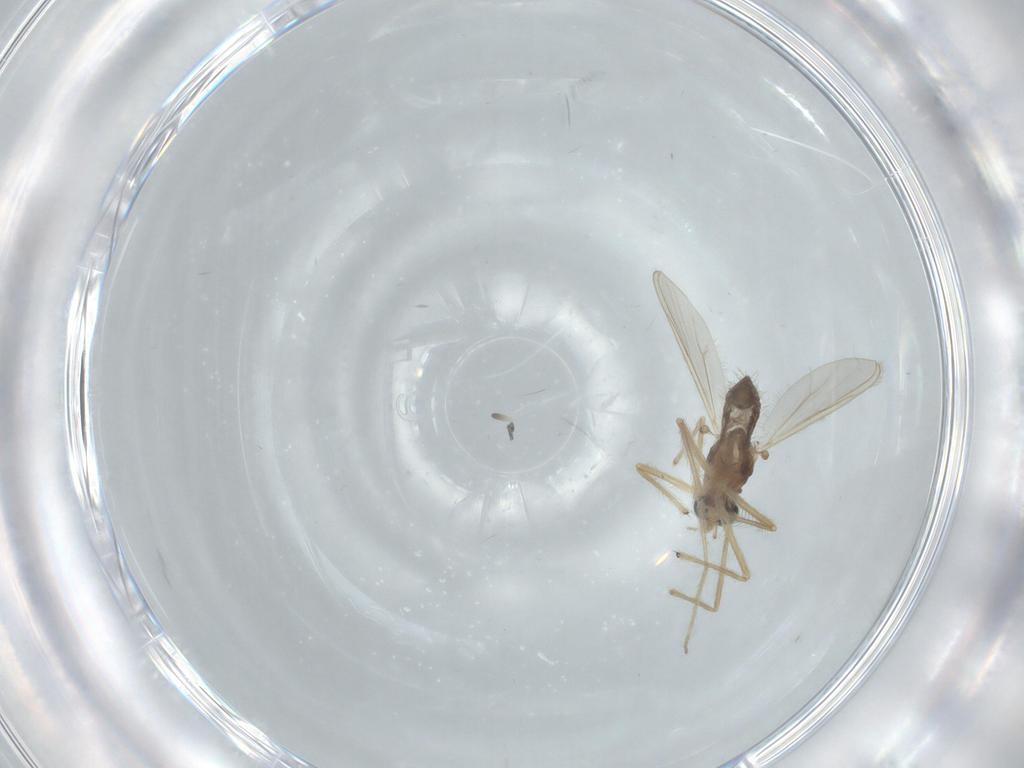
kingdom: Animalia
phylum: Arthropoda
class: Insecta
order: Diptera
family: Chironomidae
